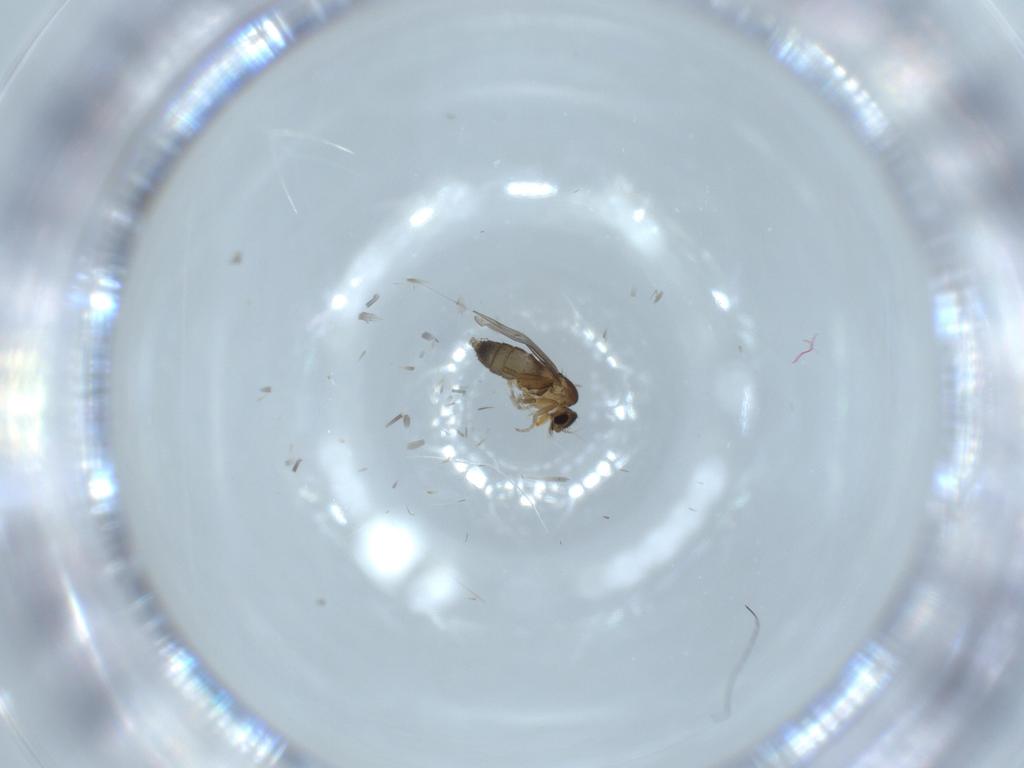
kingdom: Animalia
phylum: Arthropoda
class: Insecta
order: Diptera
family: Phoridae
